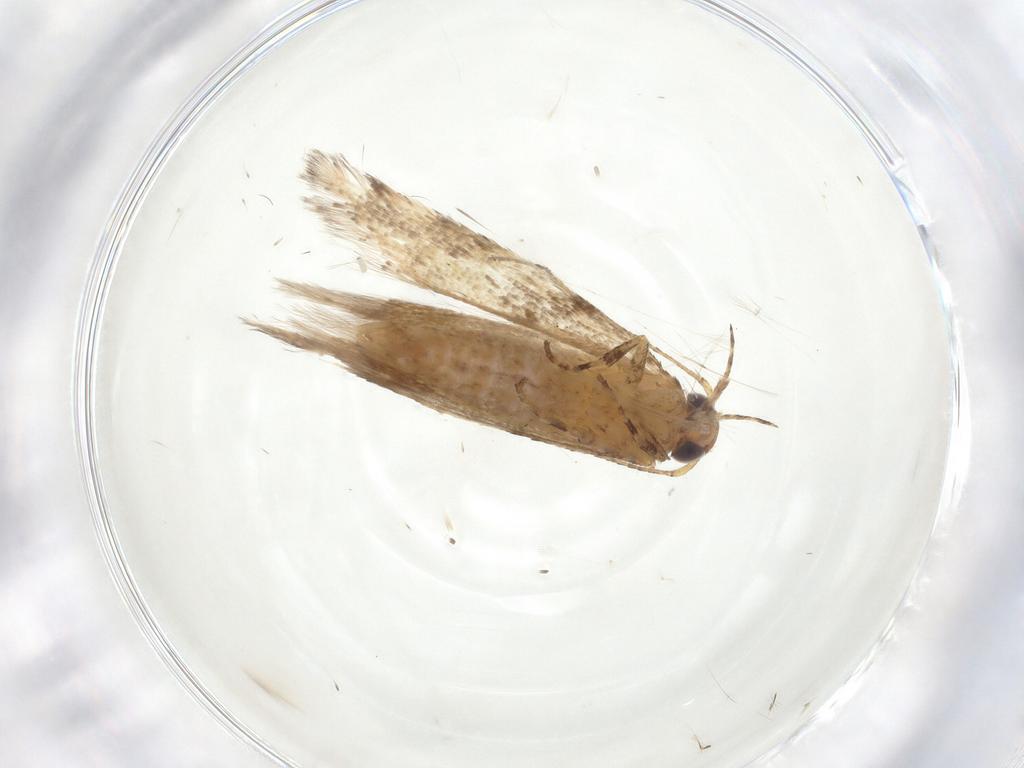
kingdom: Animalia
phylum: Arthropoda
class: Insecta
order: Lepidoptera
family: Gelechiidae
